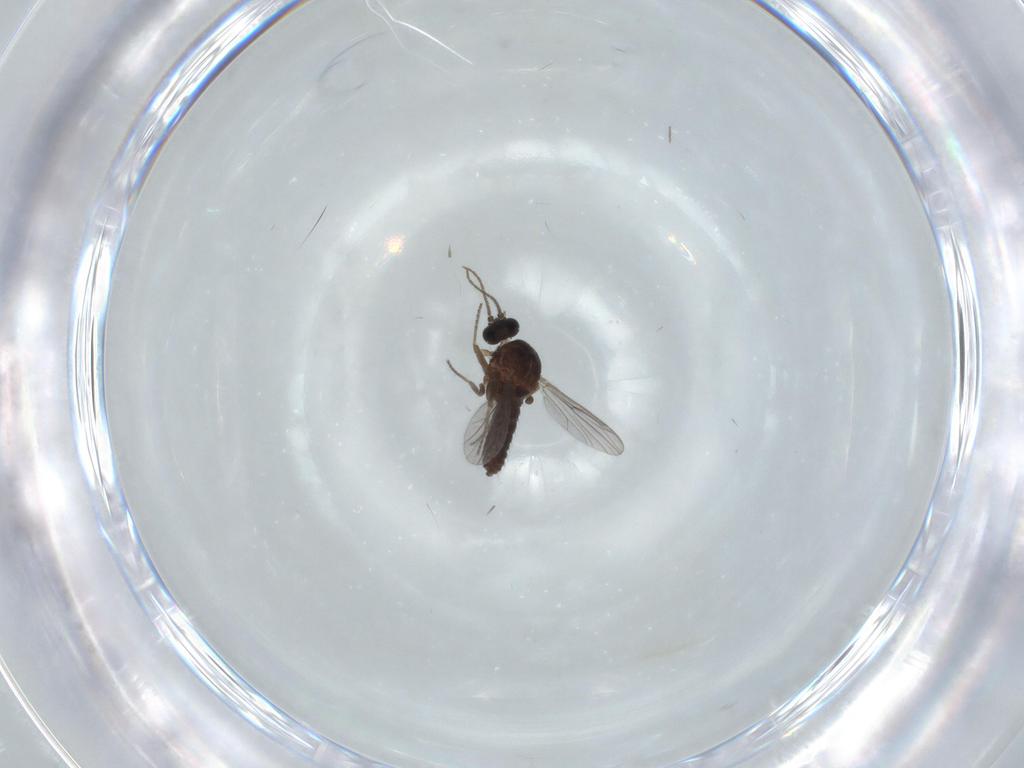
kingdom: Animalia
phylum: Arthropoda
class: Insecta
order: Diptera
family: Ceratopogonidae
